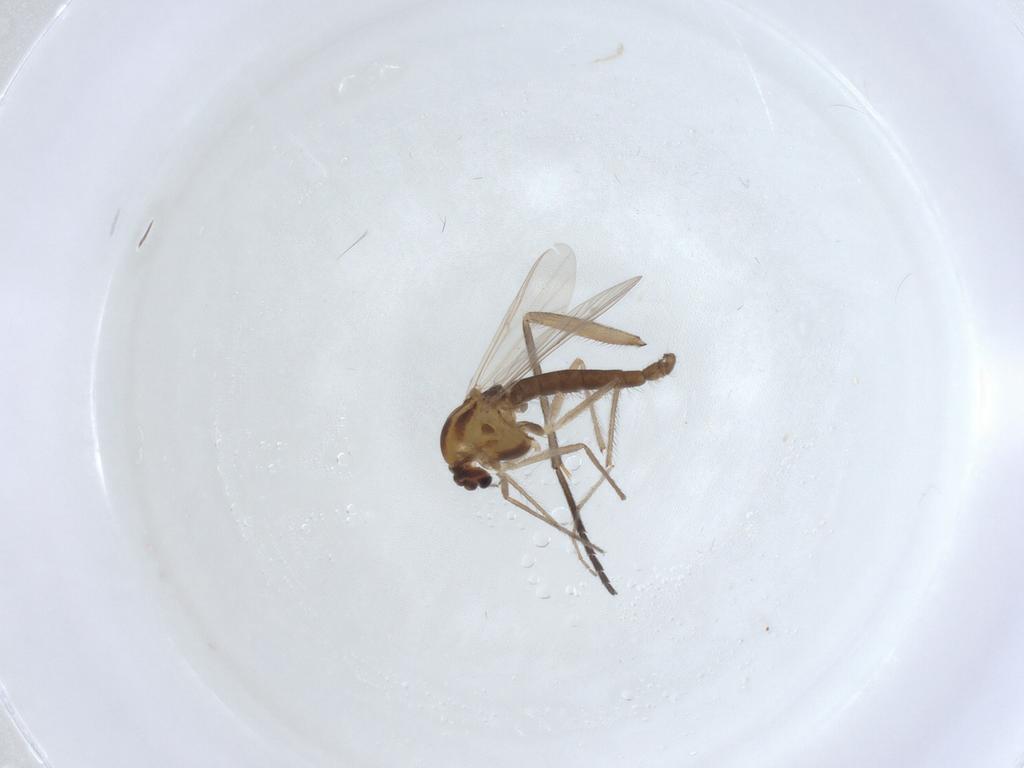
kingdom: Animalia
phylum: Arthropoda
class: Insecta
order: Diptera
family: Chironomidae
